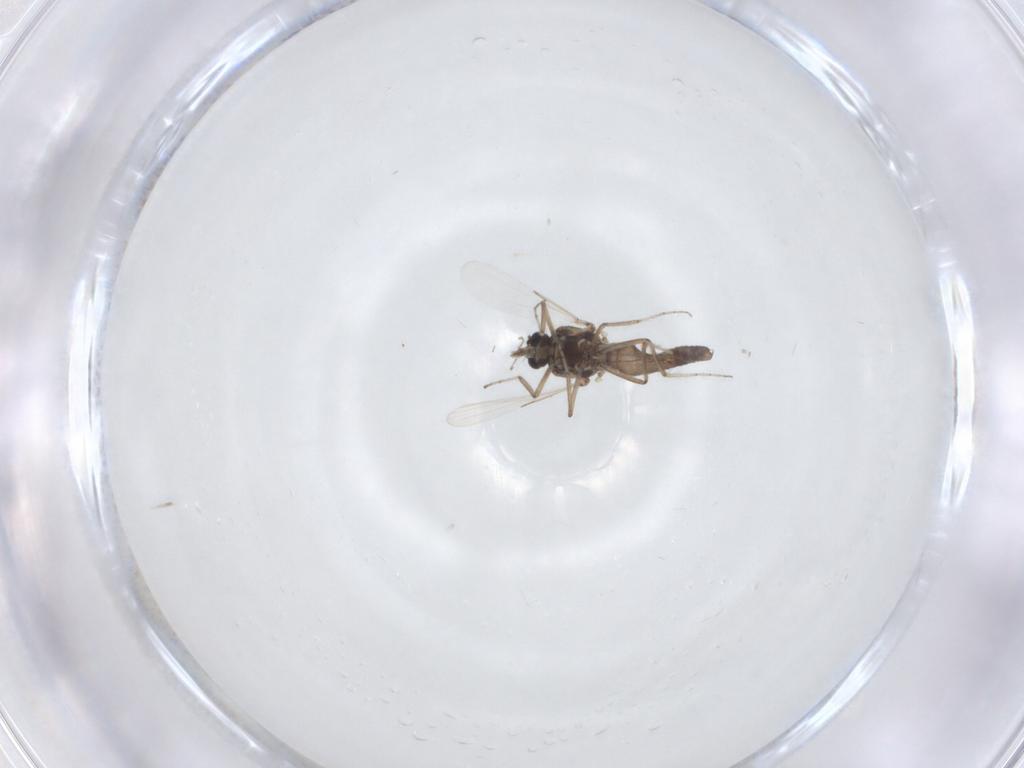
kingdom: Animalia
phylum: Arthropoda
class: Insecta
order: Diptera
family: Ceratopogonidae
